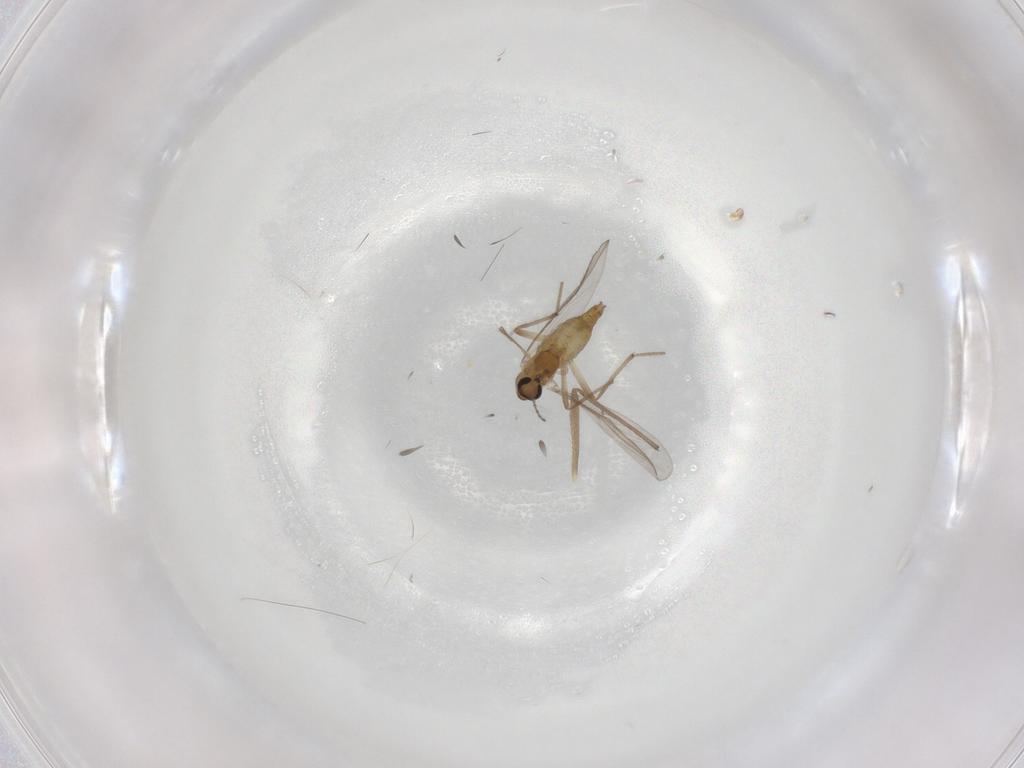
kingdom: Animalia
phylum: Arthropoda
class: Insecta
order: Diptera
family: Chironomidae
